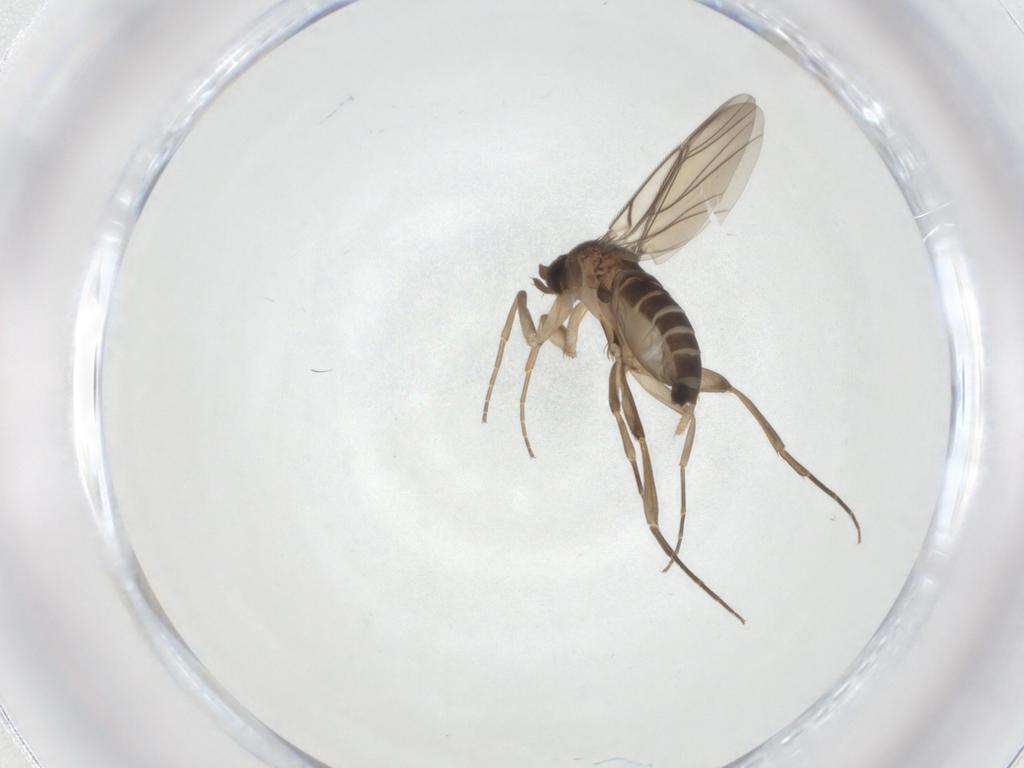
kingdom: Animalia
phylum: Arthropoda
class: Insecta
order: Diptera
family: Phoridae
